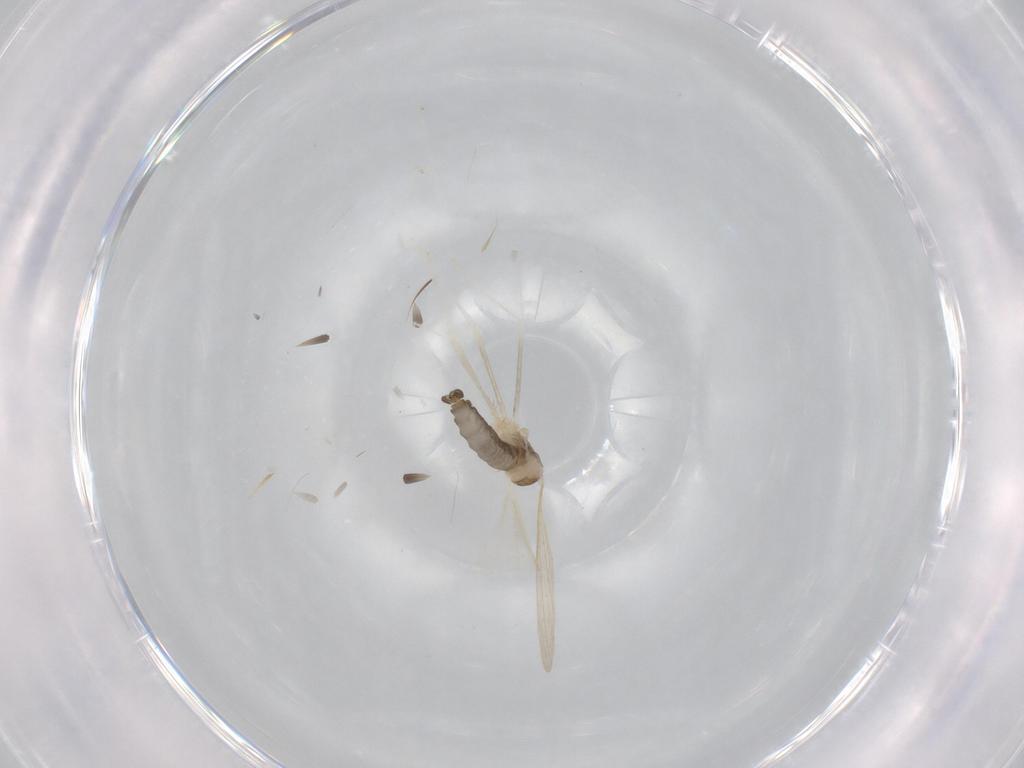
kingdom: Animalia
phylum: Arthropoda
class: Insecta
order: Diptera
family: Cecidomyiidae
